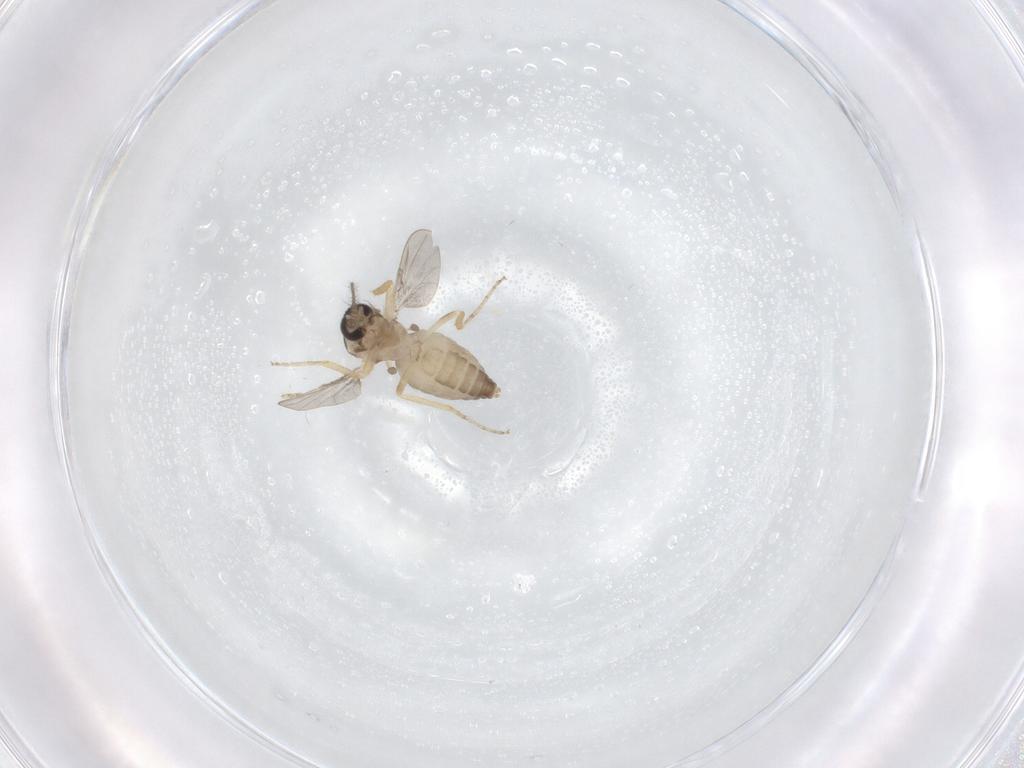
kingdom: Animalia
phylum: Arthropoda
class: Insecta
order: Diptera
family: Ceratopogonidae
